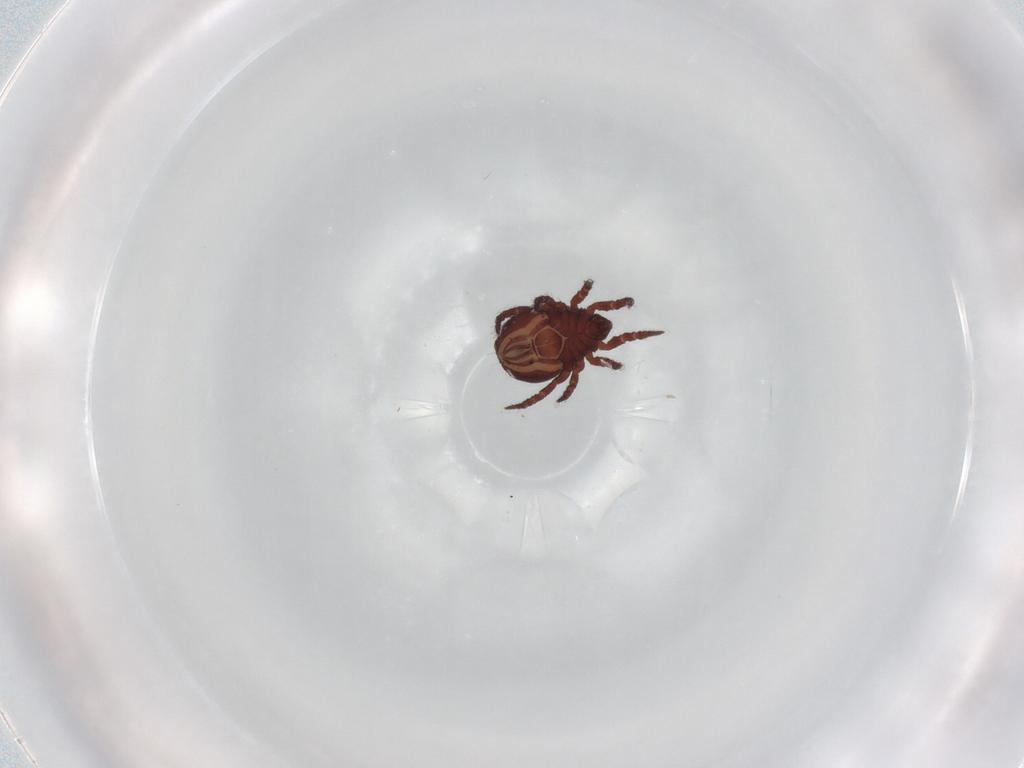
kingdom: Animalia
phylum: Arthropoda
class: Arachnida
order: Sarcoptiformes
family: Nothridae
